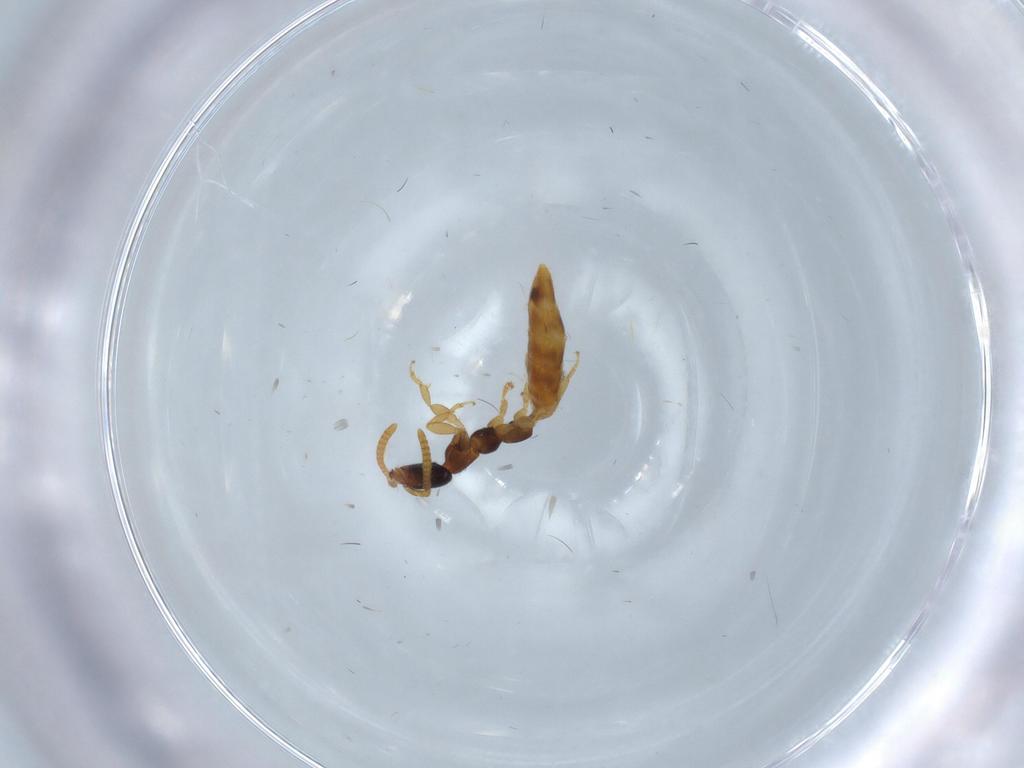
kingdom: Animalia
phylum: Arthropoda
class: Insecta
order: Hymenoptera
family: Bethylidae
